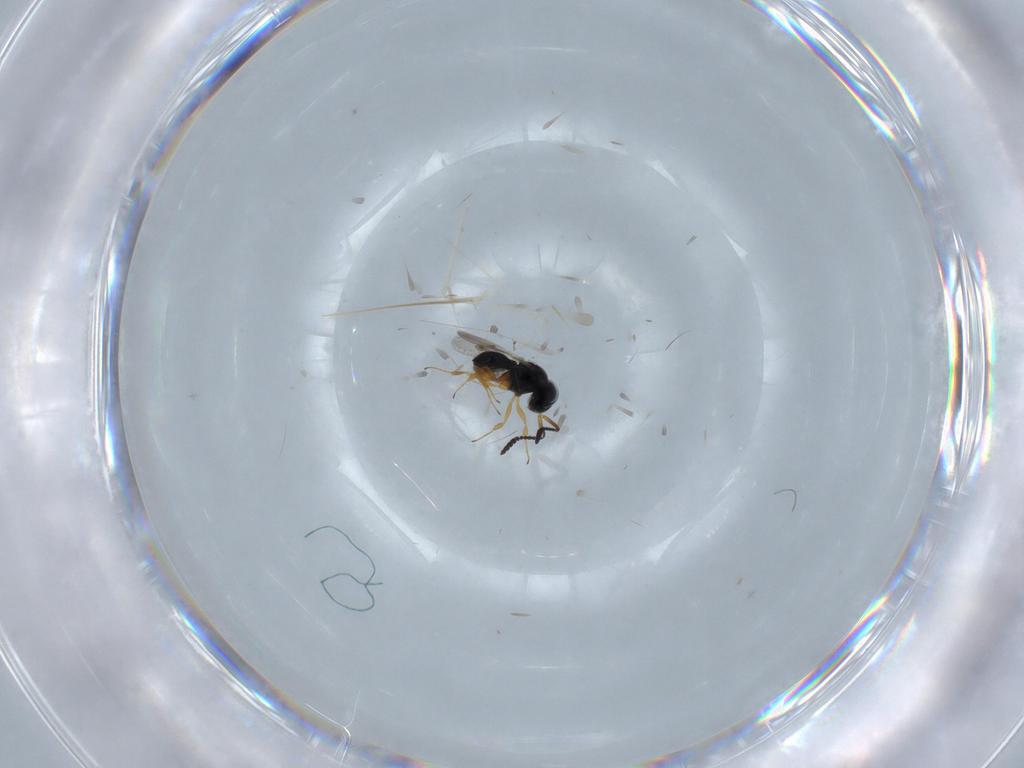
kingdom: Animalia
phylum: Arthropoda
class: Insecta
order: Hymenoptera
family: Scelionidae
